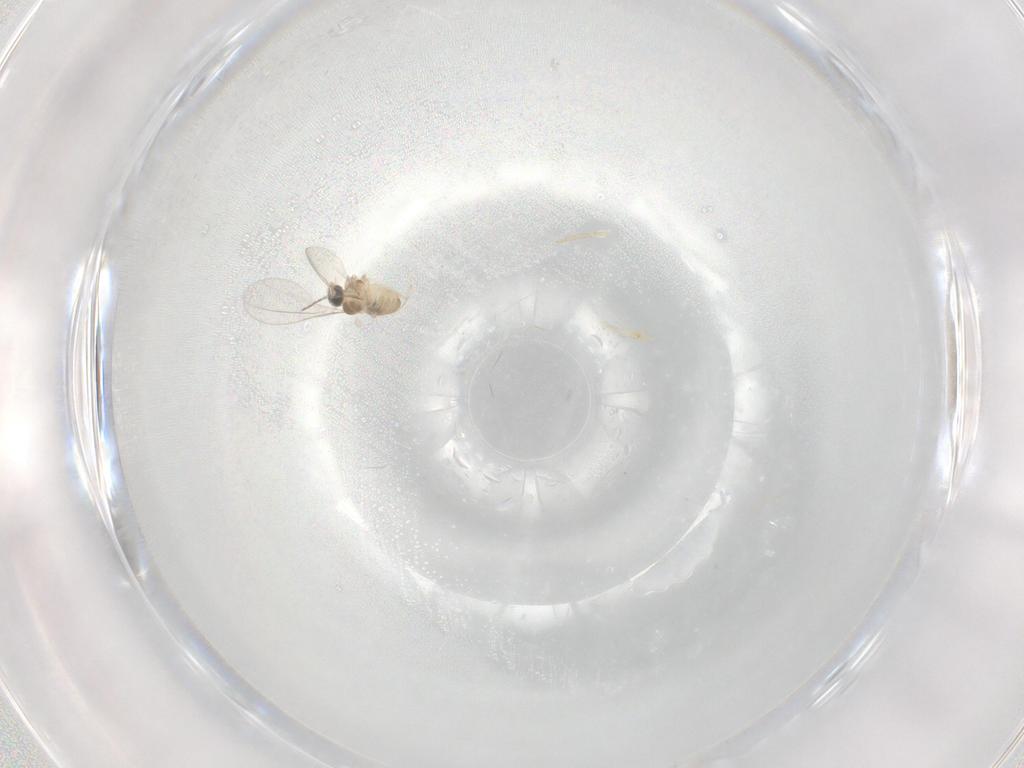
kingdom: Animalia
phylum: Arthropoda
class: Insecta
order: Diptera
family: Cecidomyiidae
